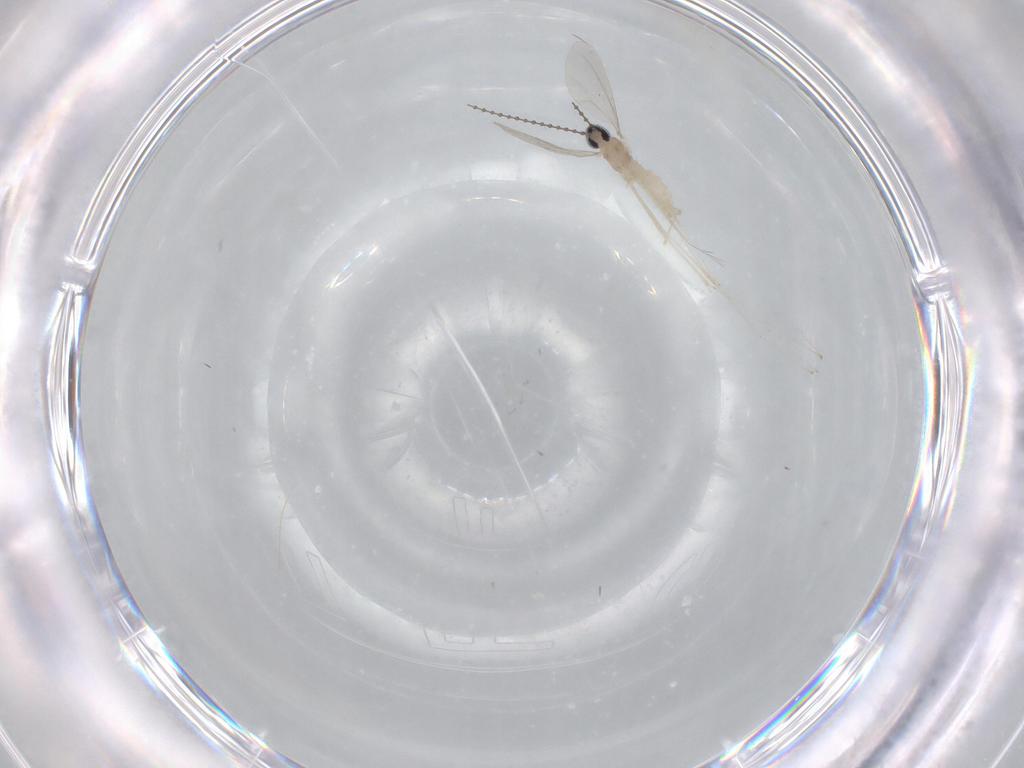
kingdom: Animalia
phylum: Arthropoda
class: Insecta
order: Diptera
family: Cecidomyiidae
